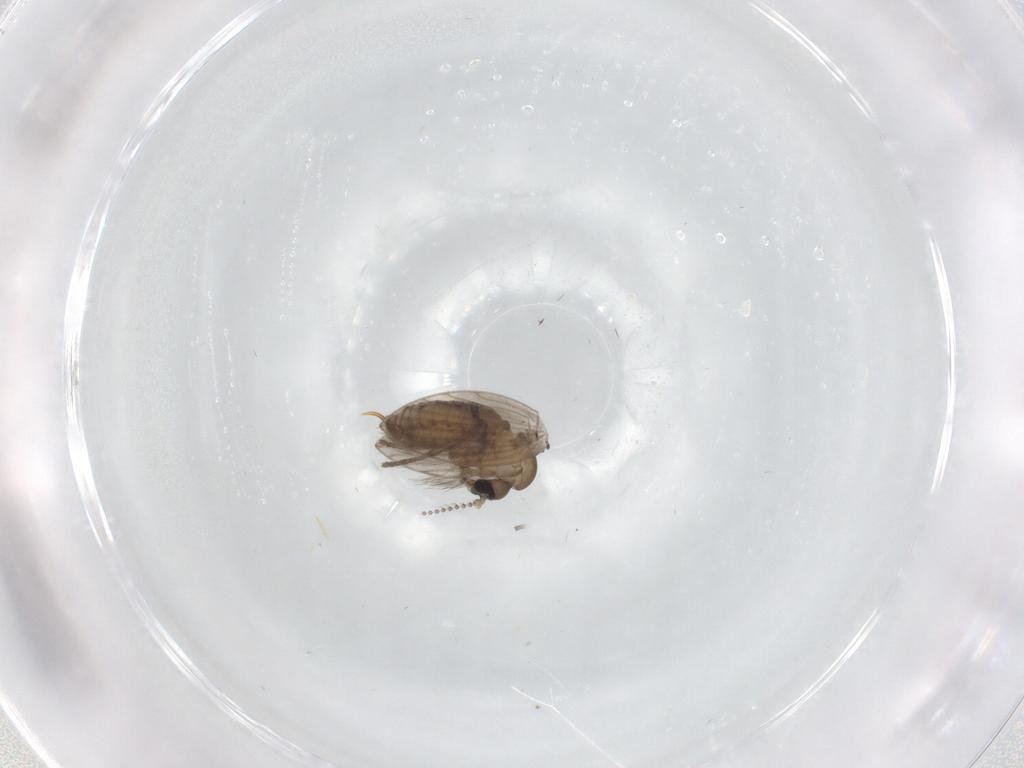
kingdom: Animalia
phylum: Arthropoda
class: Insecta
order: Diptera
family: Psychodidae
